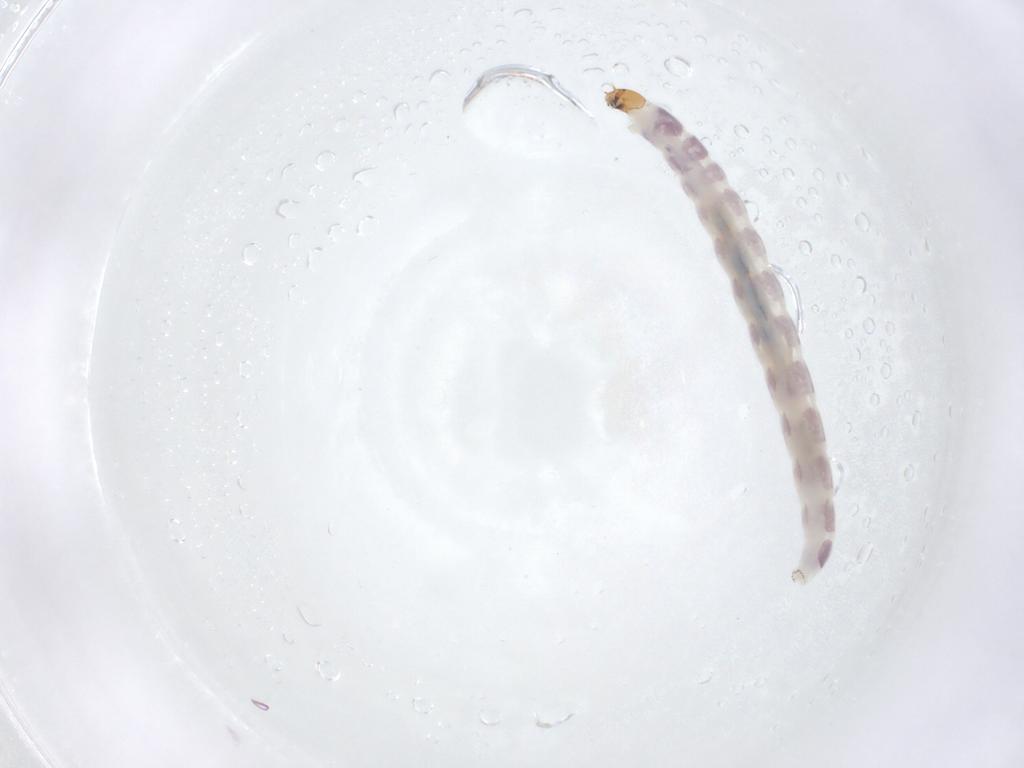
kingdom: Animalia
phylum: Arthropoda
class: Insecta
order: Diptera
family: Chironomidae
